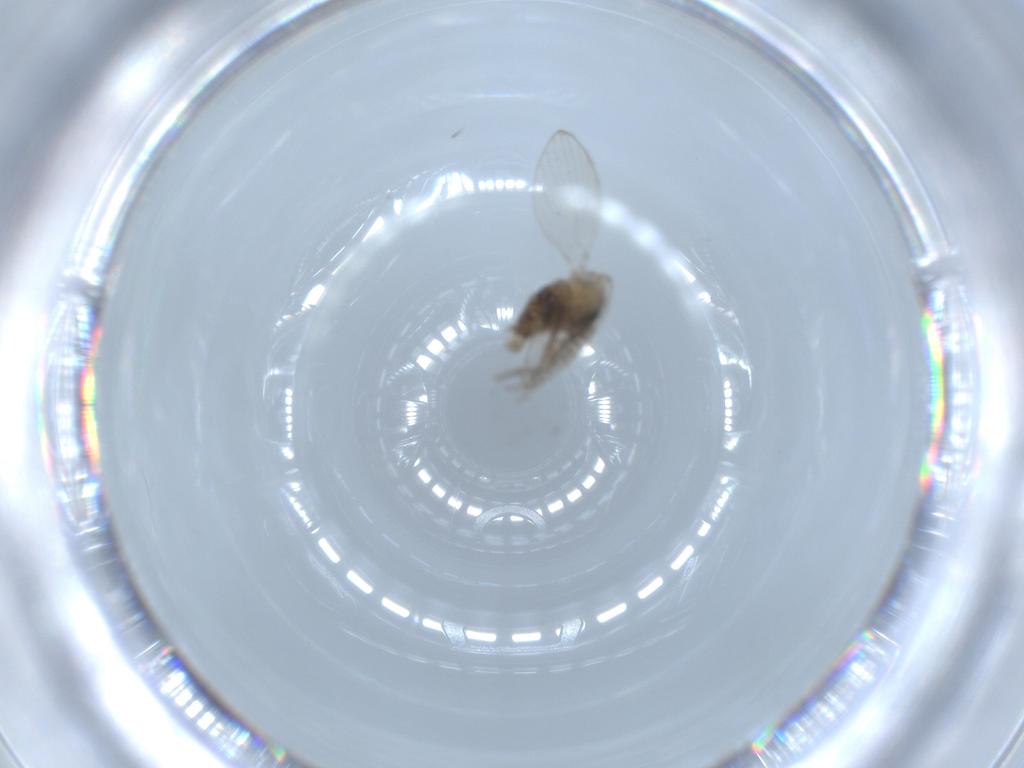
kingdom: Animalia
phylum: Arthropoda
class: Insecta
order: Diptera
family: Psychodidae
